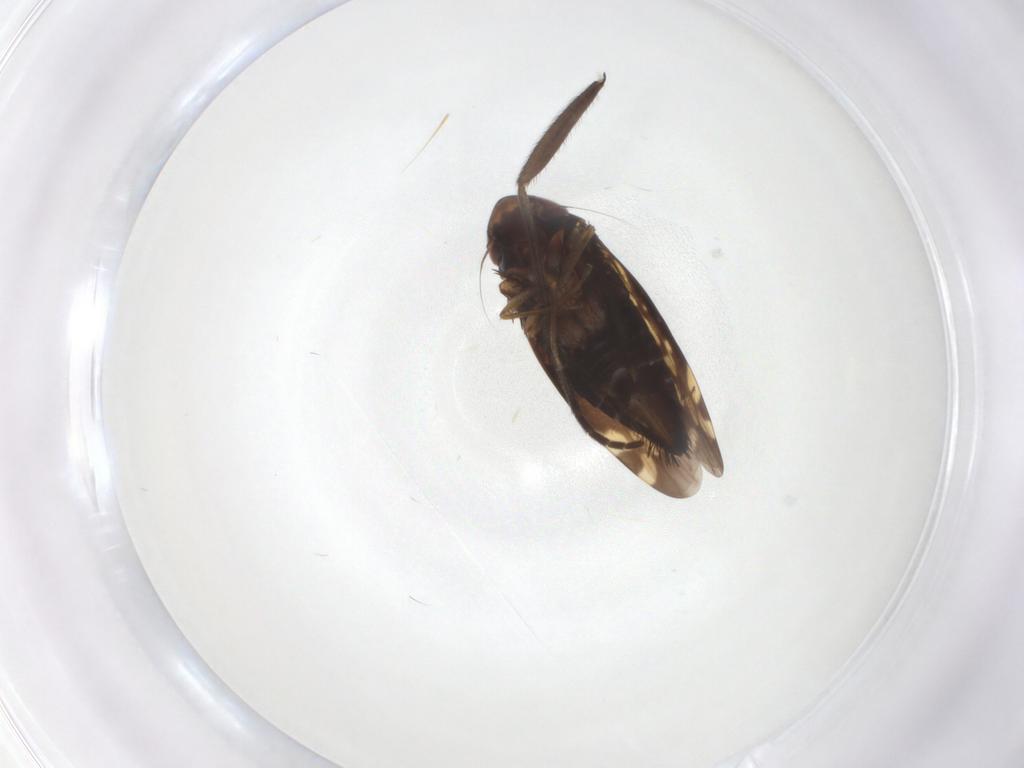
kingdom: Animalia
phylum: Arthropoda
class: Insecta
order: Hemiptera
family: Cicadellidae
